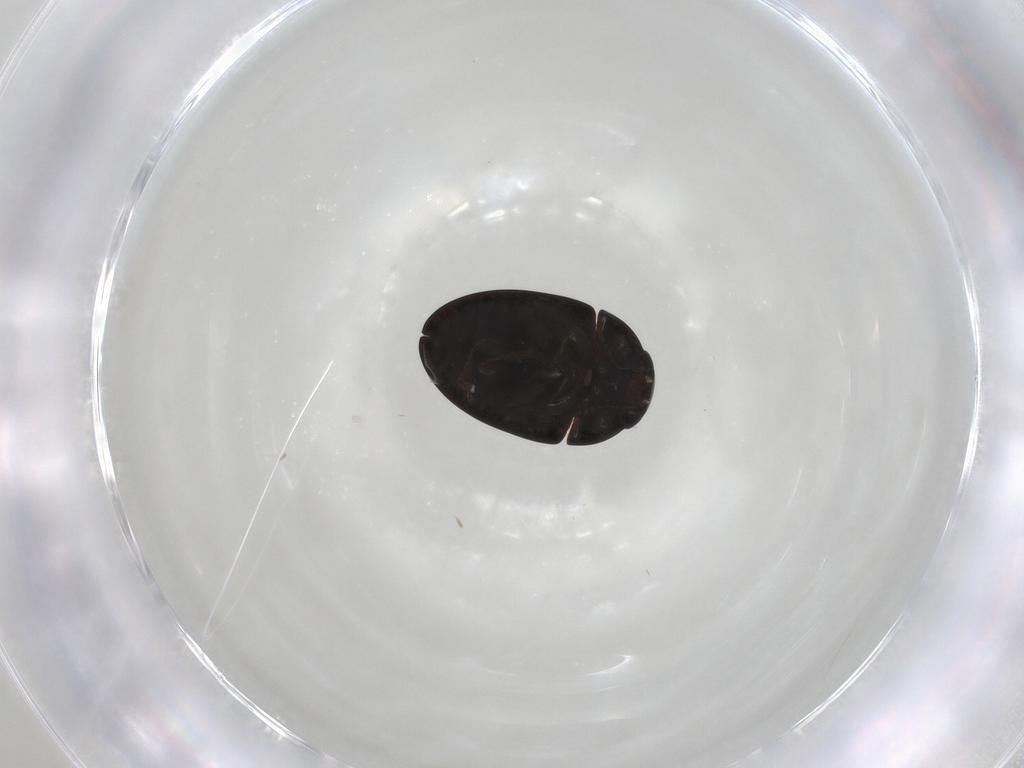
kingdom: Animalia
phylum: Arthropoda
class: Insecta
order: Coleoptera
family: Phalacridae
